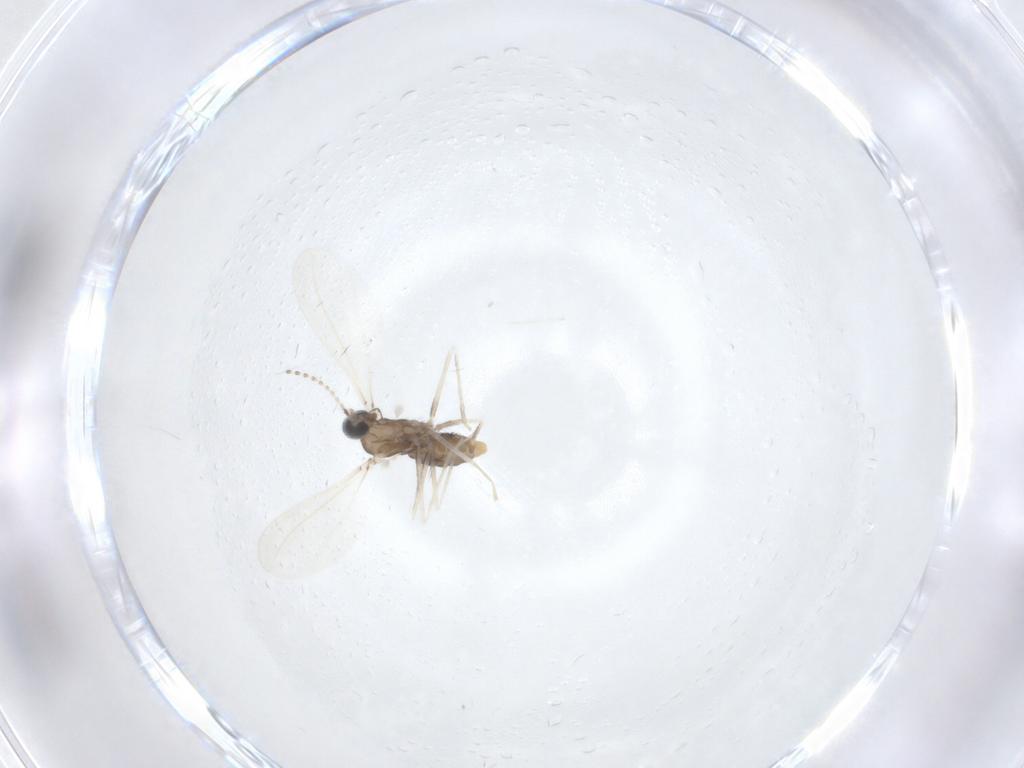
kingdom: Animalia
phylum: Arthropoda
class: Insecta
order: Diptera
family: Cecidomyiidae
